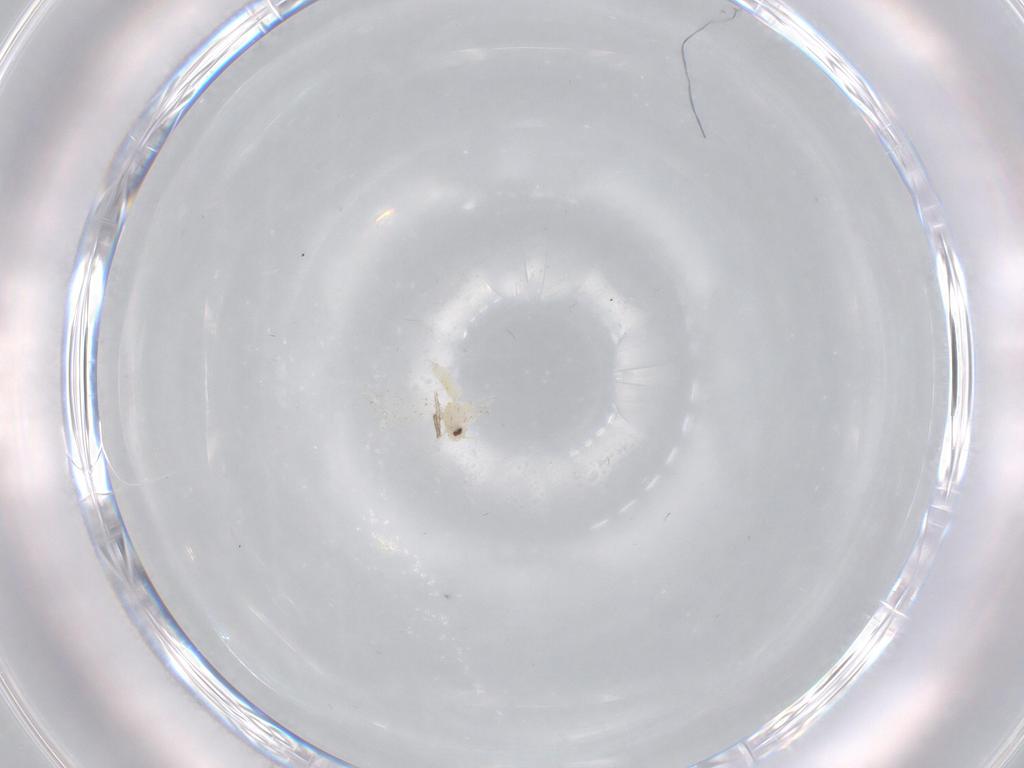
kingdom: Animalia
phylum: Arthropoda
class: Insecta
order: Hemiptera
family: Aleyrodidae
